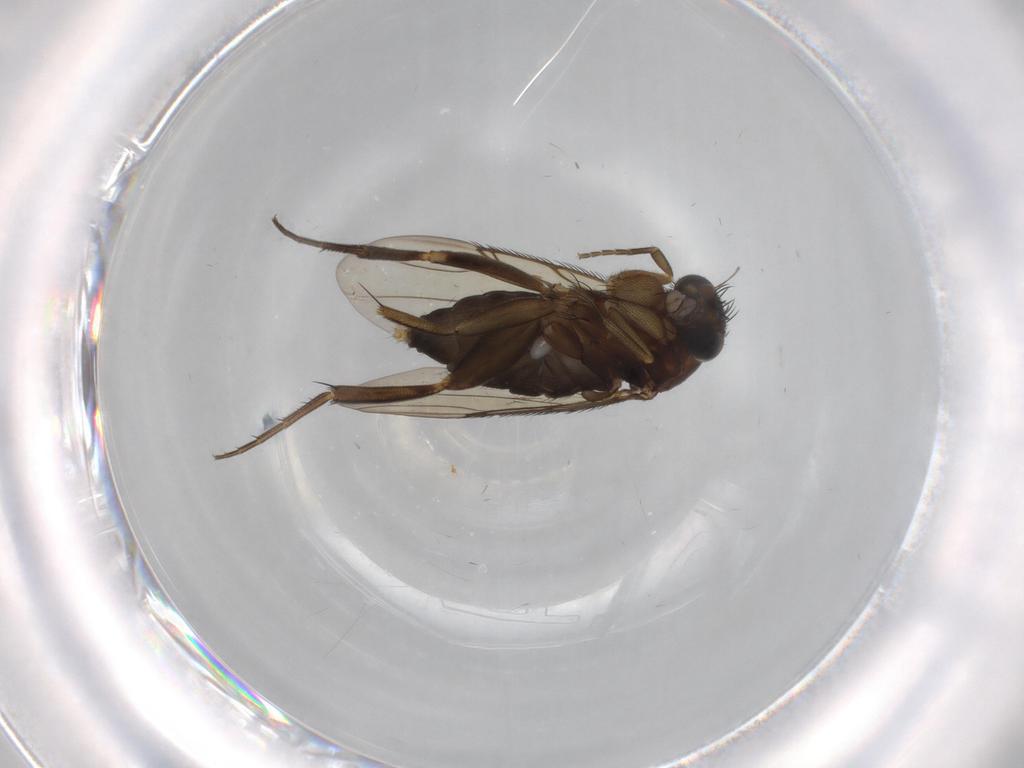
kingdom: Animalia
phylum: Arthropoda
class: Insecta
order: Diptera
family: Phoridae
